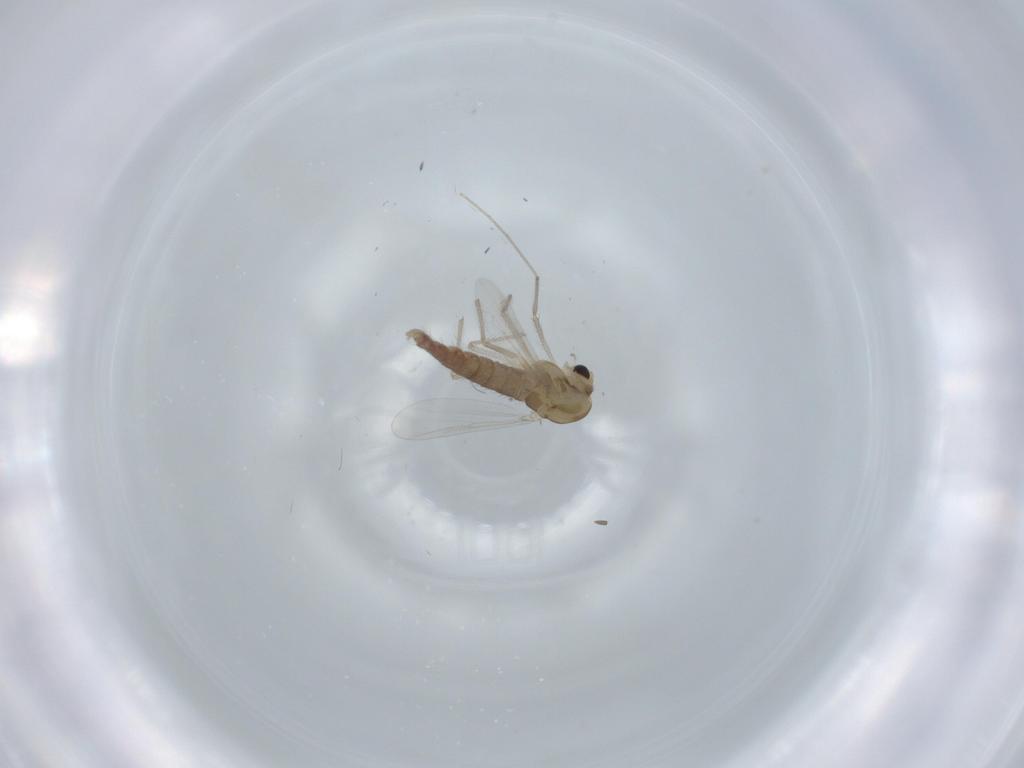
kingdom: Animalia
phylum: Arthropoda
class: Insecta
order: Diptera
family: Chironomidae
